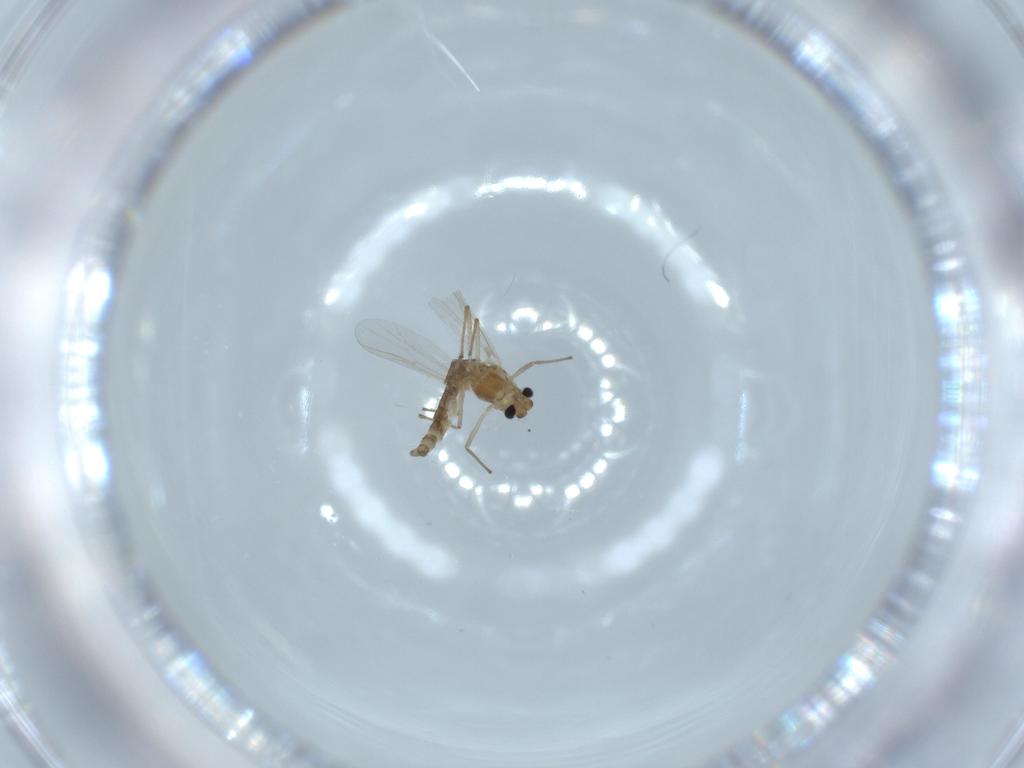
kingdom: Animalia
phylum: Arthropoda
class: Insecta
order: Diptera
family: Chironomidae
